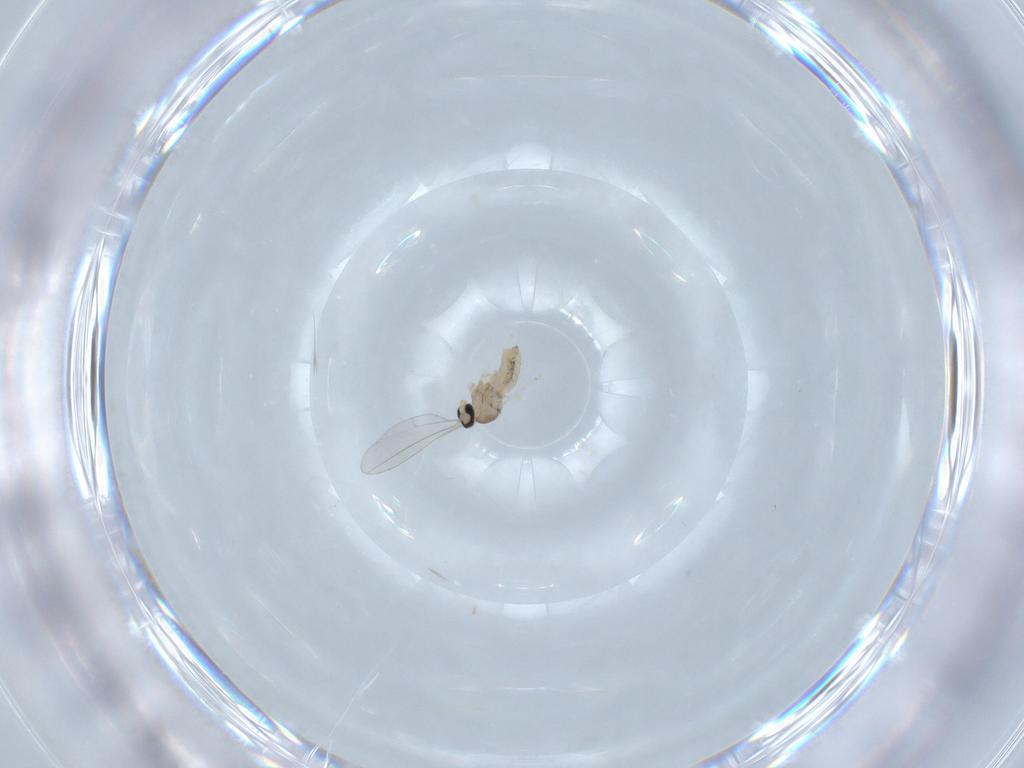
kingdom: Animalia
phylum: Arthropoda
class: Insecta
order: Diptera
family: Cecidomyiidae
